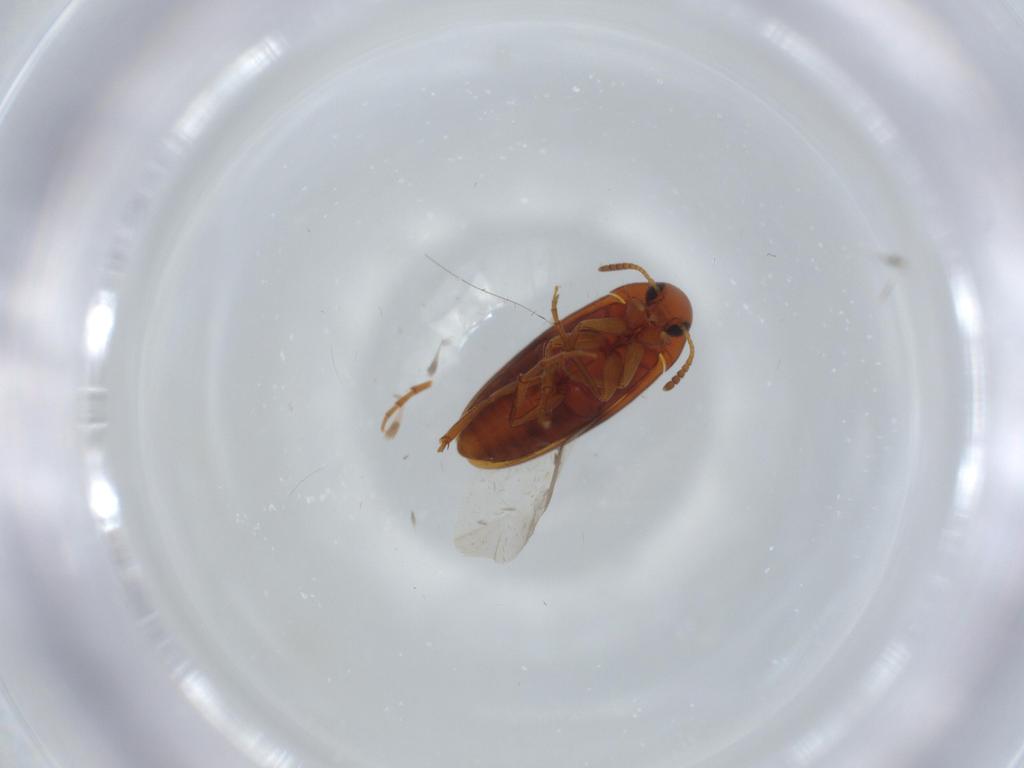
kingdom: Animalia
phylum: Arthropoda
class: Insecta
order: Coleoptera
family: Scraptiidae
